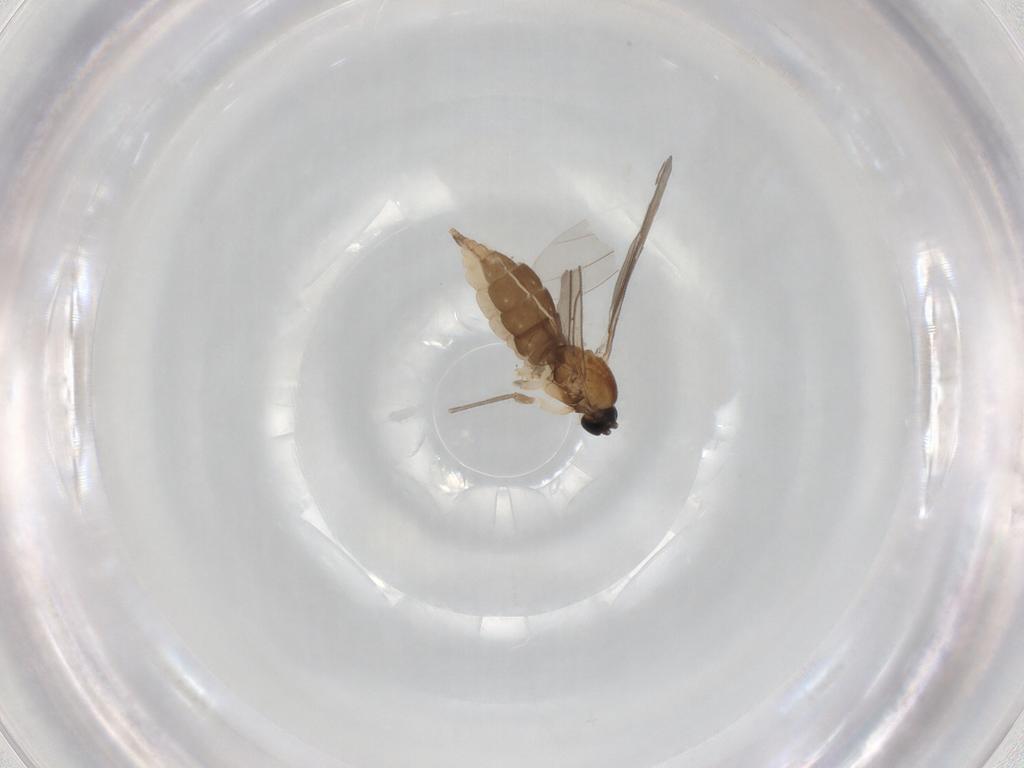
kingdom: Animalia
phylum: Arthropoda
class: Insecta
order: Diptera
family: Sciaridae
